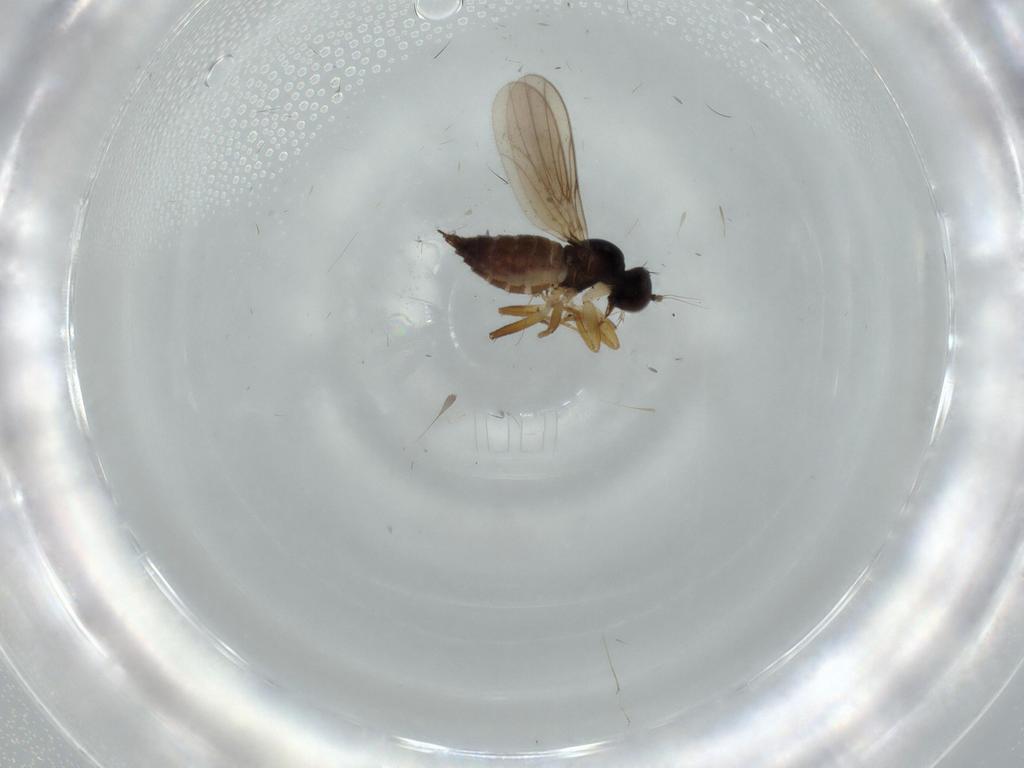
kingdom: Animalia
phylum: Arthropoda
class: Insecta
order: Diptera
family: Hybotidae
